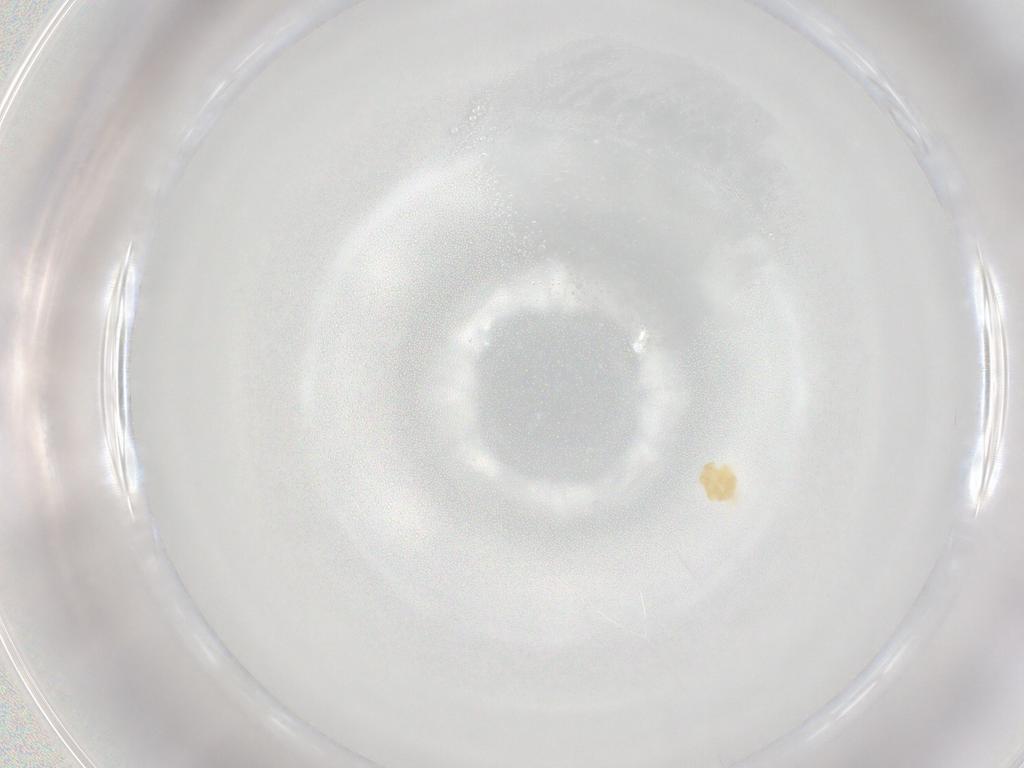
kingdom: Animalia
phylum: Arthropoda
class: Arachnida
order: Trombidiformes
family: Eupodidae
